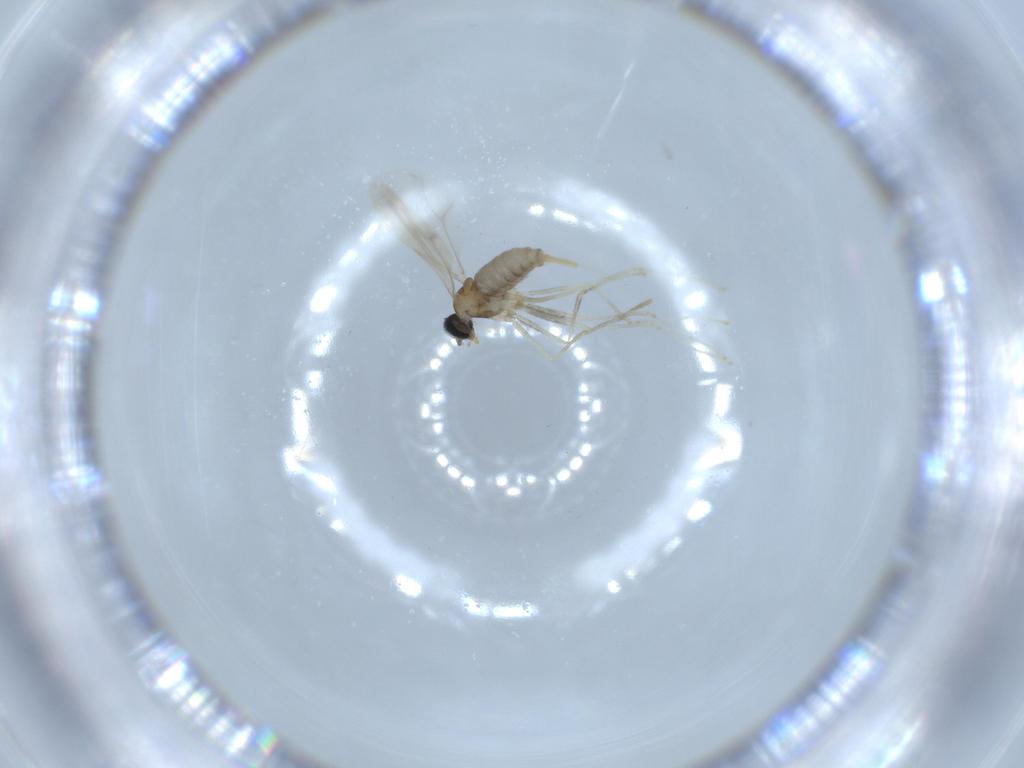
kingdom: Animalia
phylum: Arthropoda
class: Insecta
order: Diptera
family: Cecidomyiidae
